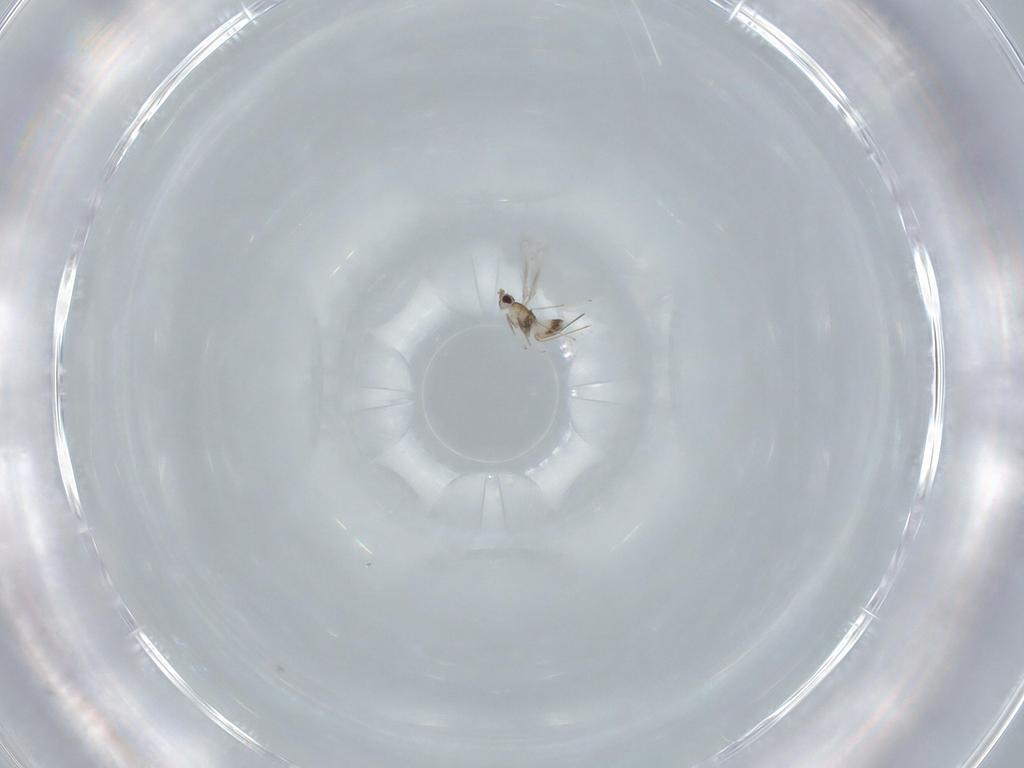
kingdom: Animalia
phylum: Arthropoda
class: Insecta
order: Hymenoptera
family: Mymaridae
